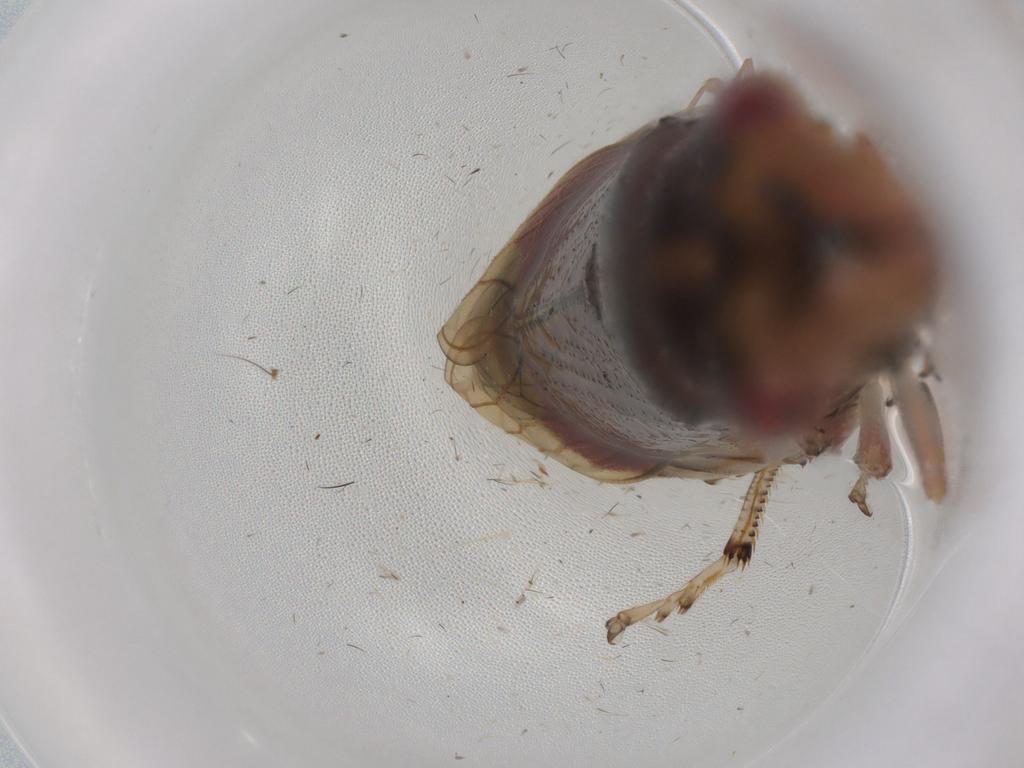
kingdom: Animalia
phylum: Arthropoda
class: Insecta
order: Hemiptera
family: Cicadellidae
